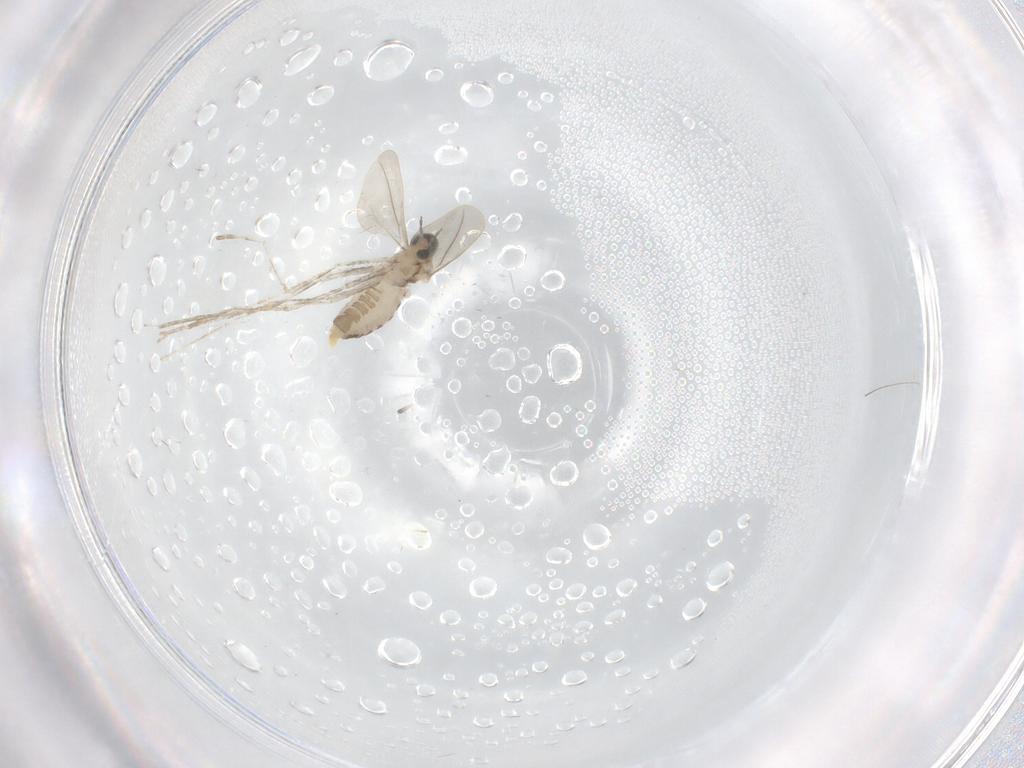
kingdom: Animalia
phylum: Arthropoda
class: Insecta
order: Diptera
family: Cecidomyiidae
